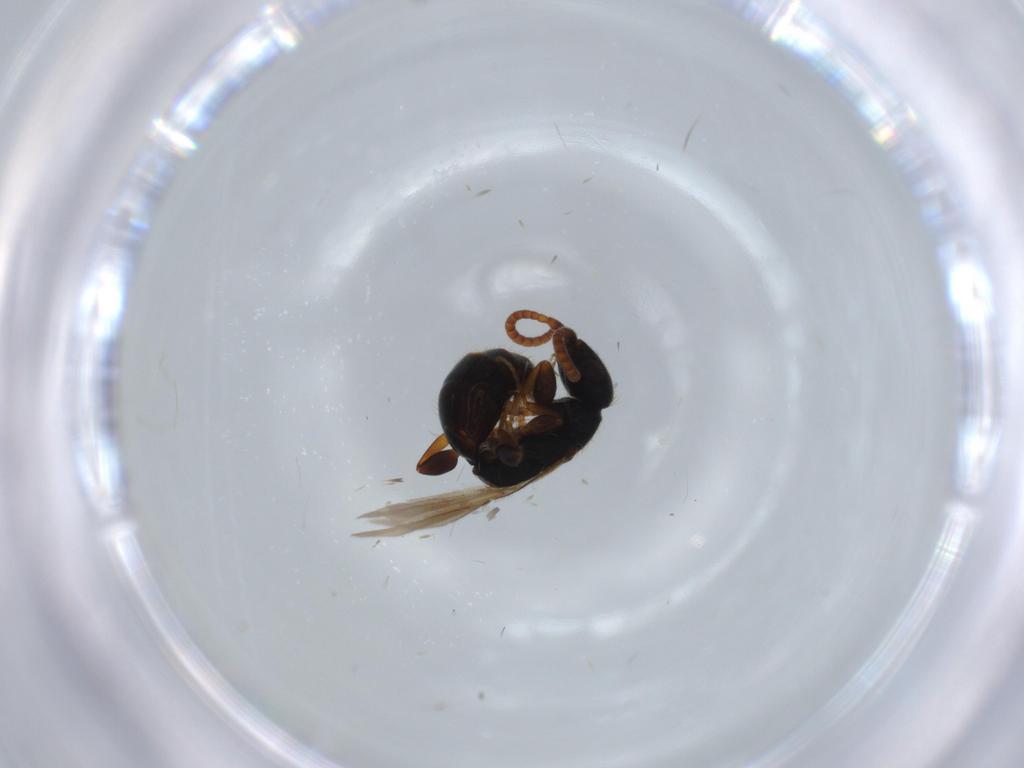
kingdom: Animalia
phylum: Arthropoda
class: Insecta
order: Hymenoptera
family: Bethylidae
